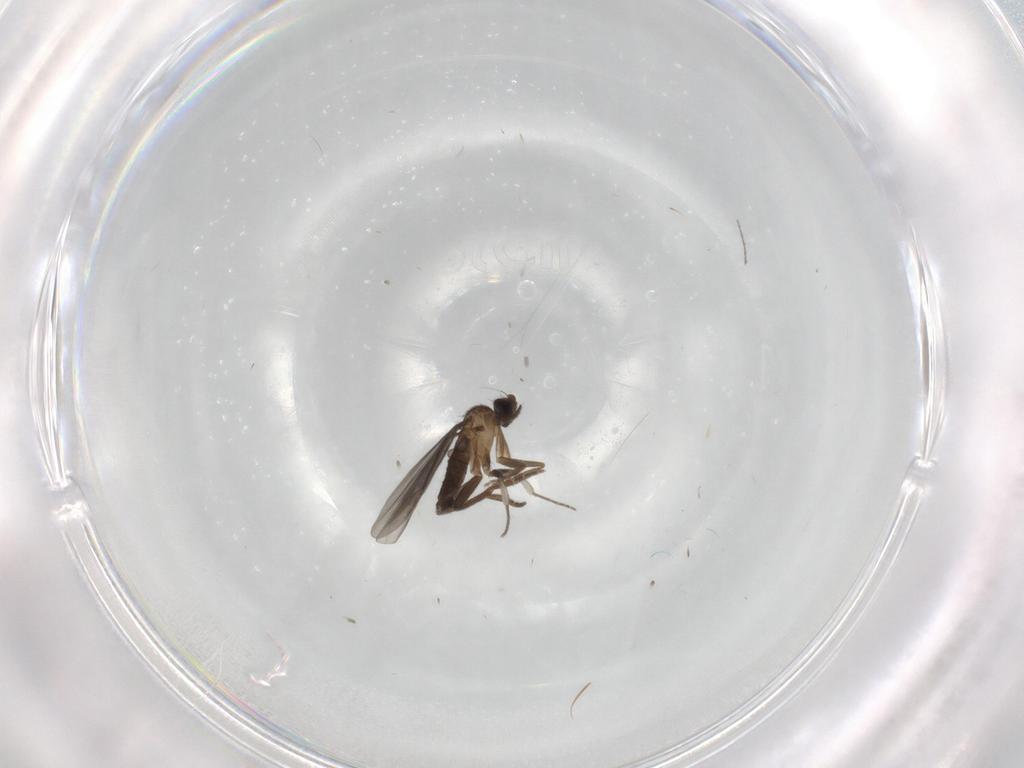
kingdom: Animalia
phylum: Arthropoda
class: Insecta
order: Diptera
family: Phoridae
